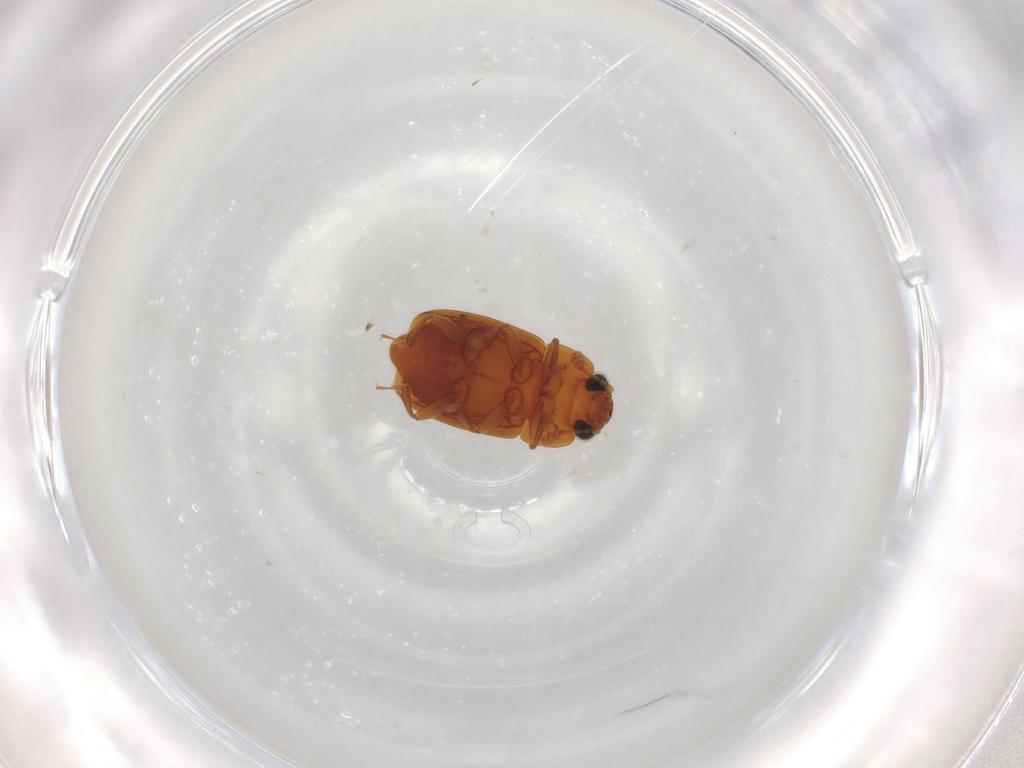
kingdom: Animalia
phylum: Arthropoda
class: Insecta
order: Coleoptera
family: Nitidulidae
